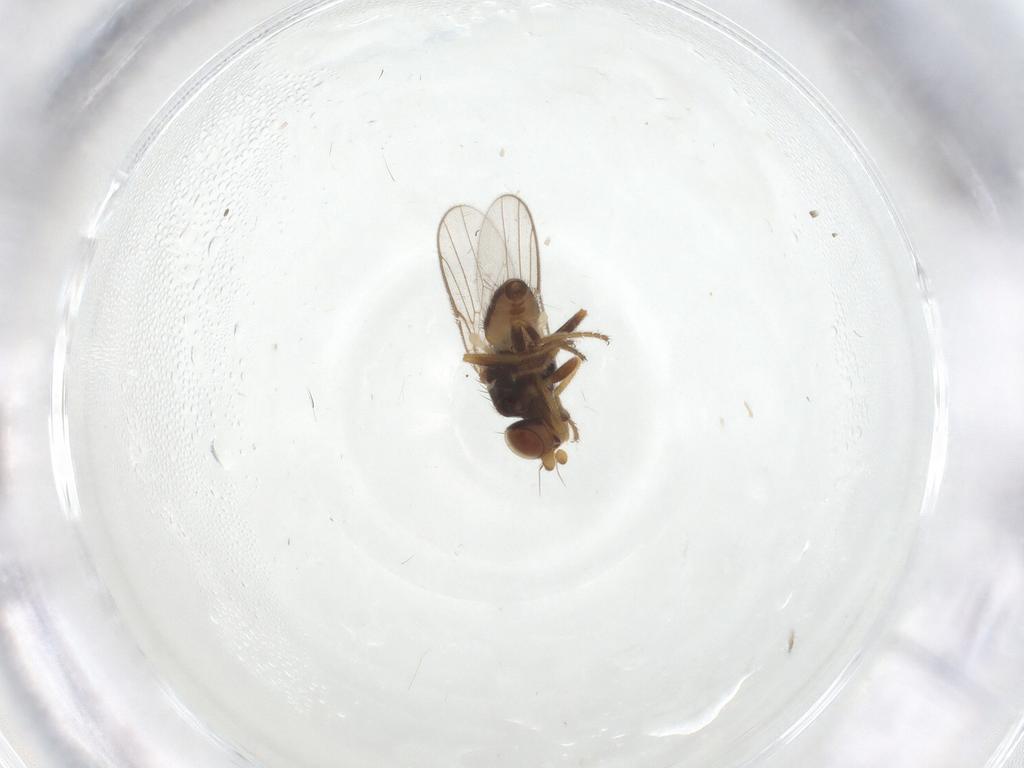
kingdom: Animalia
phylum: Arthropoda
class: Insecta
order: Diptera
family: Chloropidae
